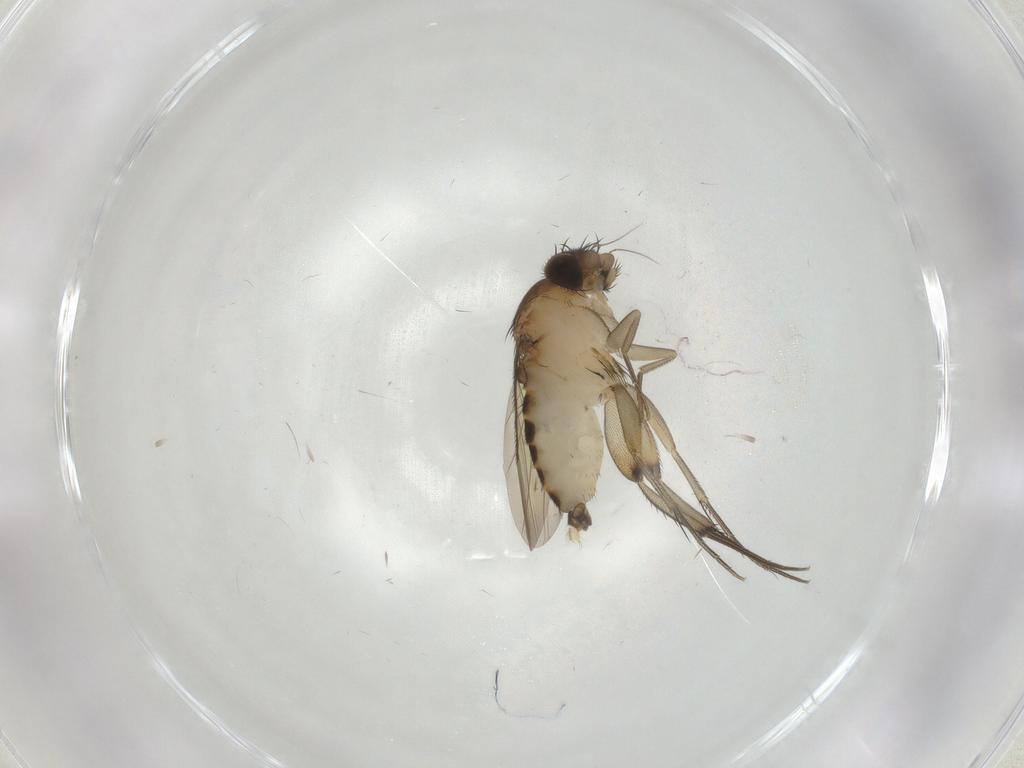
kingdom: Animalia
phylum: Arthropoda
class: Insecta
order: Diptera
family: Phoridae
